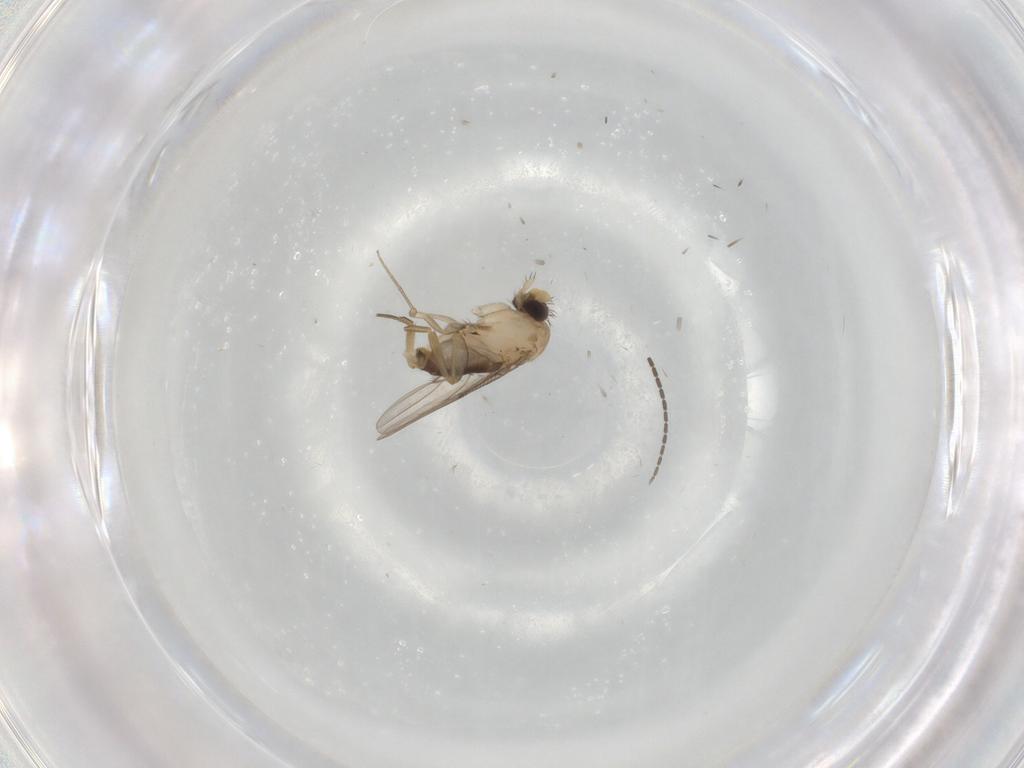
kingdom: Animalia
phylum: Arthropoda
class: Insecta
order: Diptera
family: Phoridae
